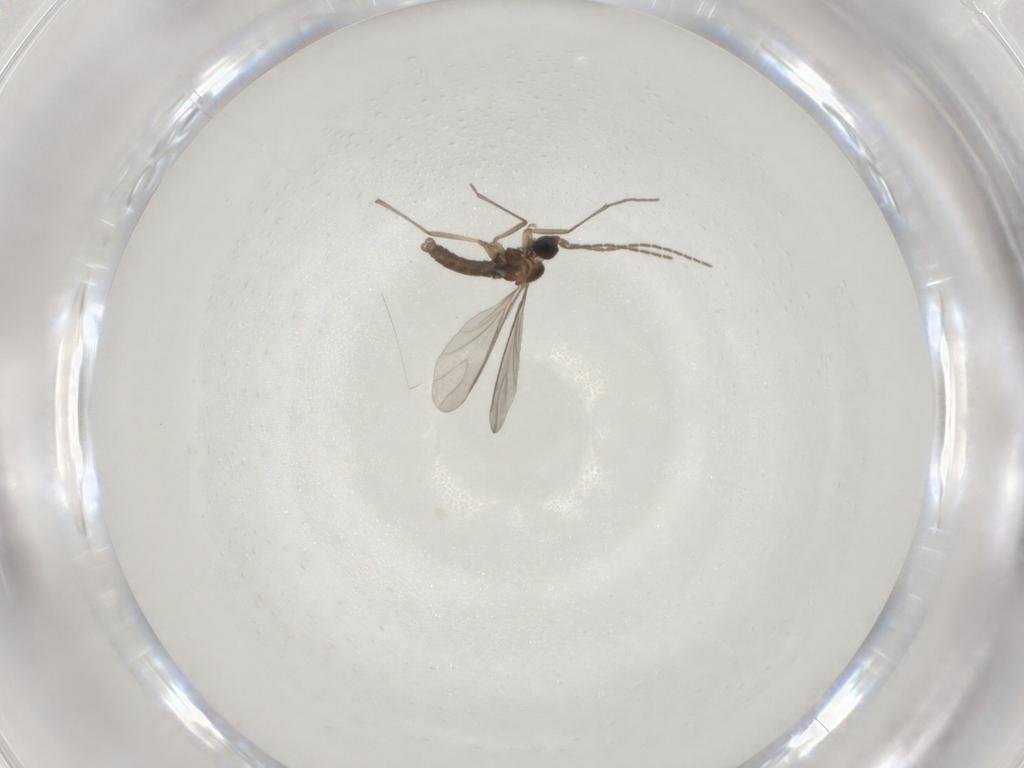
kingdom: Animalia
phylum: Arthropoda
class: Insecta
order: Diptera
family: Sciaridae
